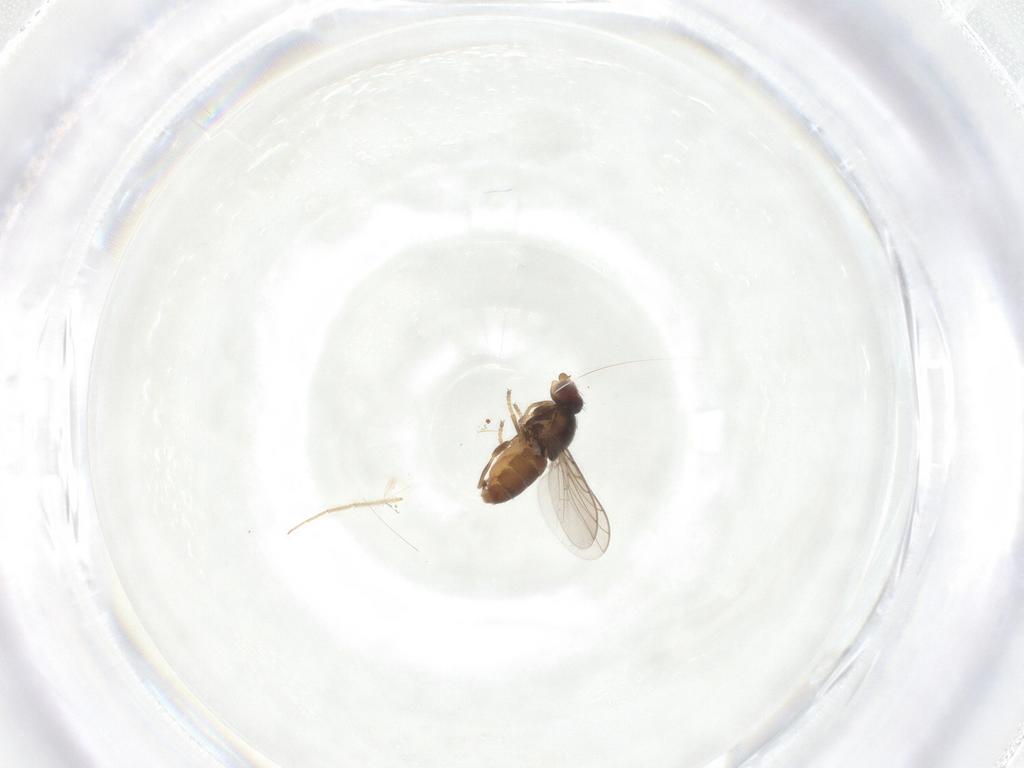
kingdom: Animalia
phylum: Arthropoda
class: Insecta
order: Diptera
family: Chloropidae
